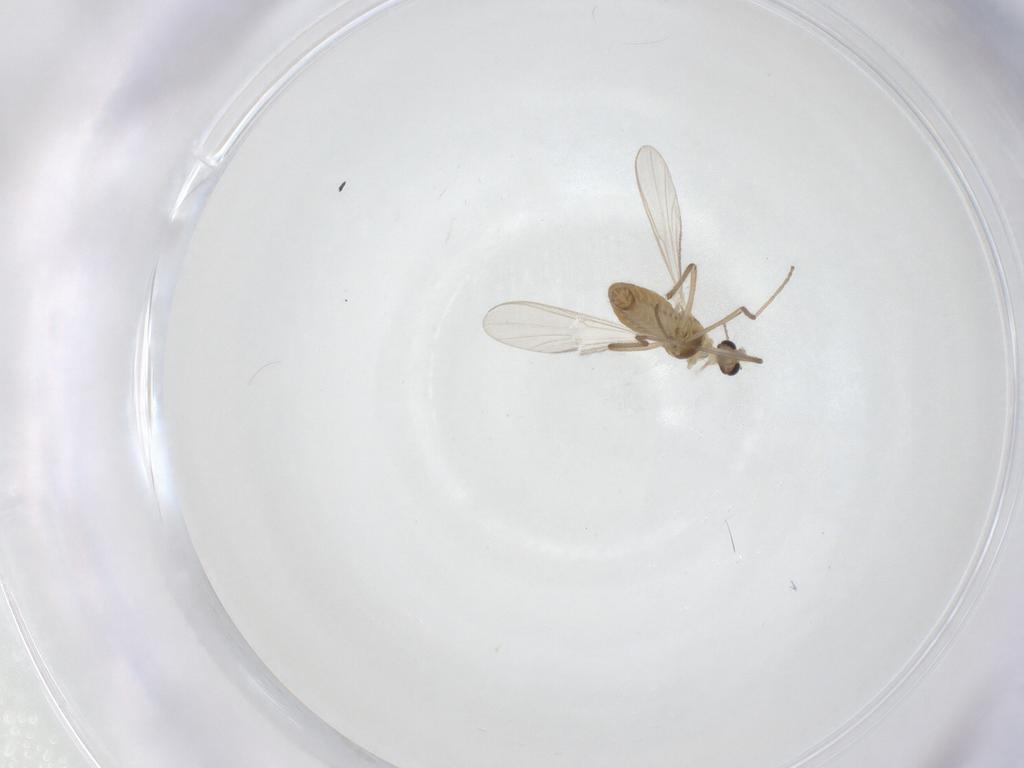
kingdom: Animalia
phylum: Arthropoda
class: Insecta
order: Diptera
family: Chironomidae
